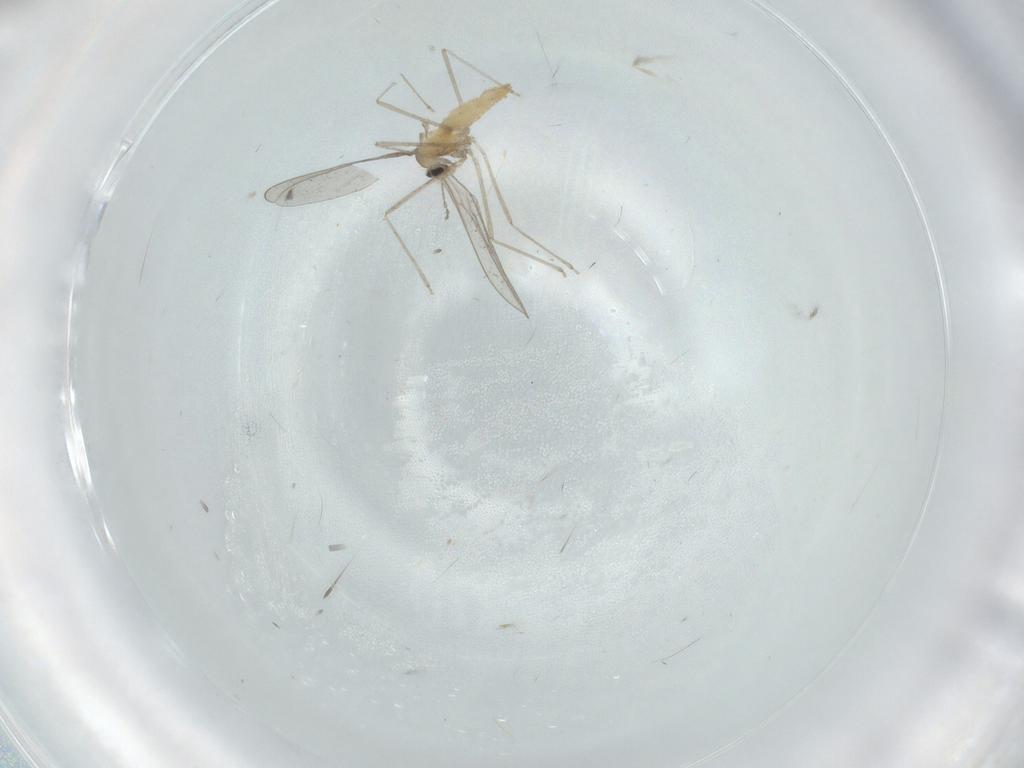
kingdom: Animalia
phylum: Arthropoda
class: Insecta
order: Diptera
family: Cecidomyiidae
